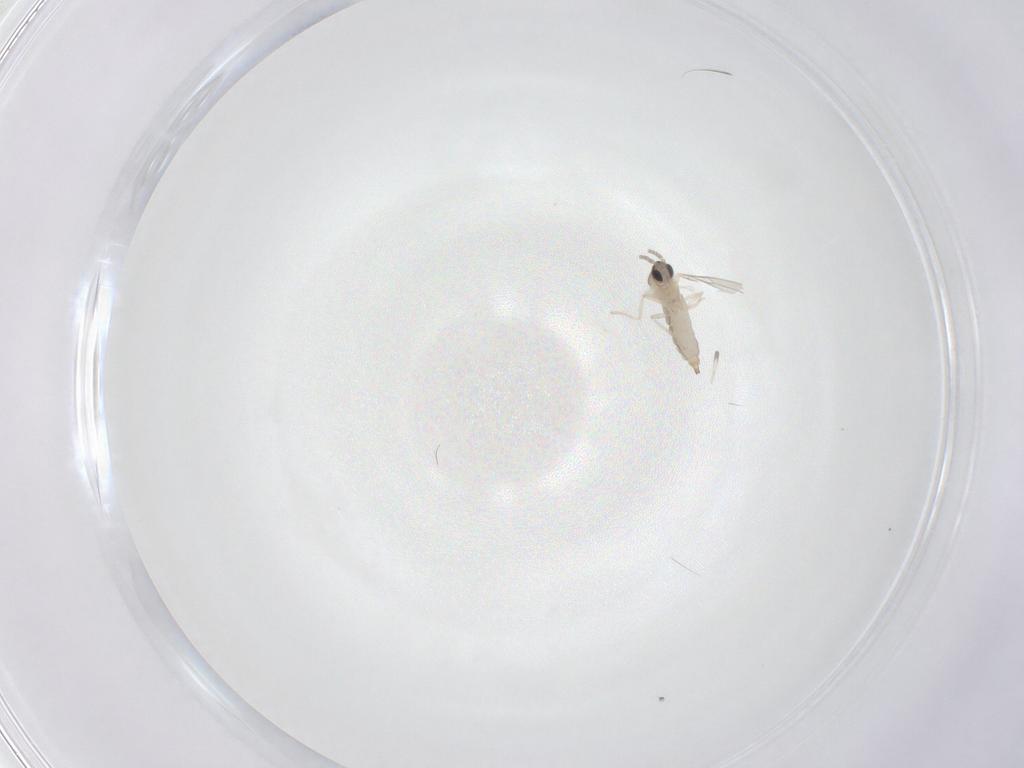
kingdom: Animalia
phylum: Arthropoda
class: Insecta
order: Diptera
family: Cecidomyiidae
